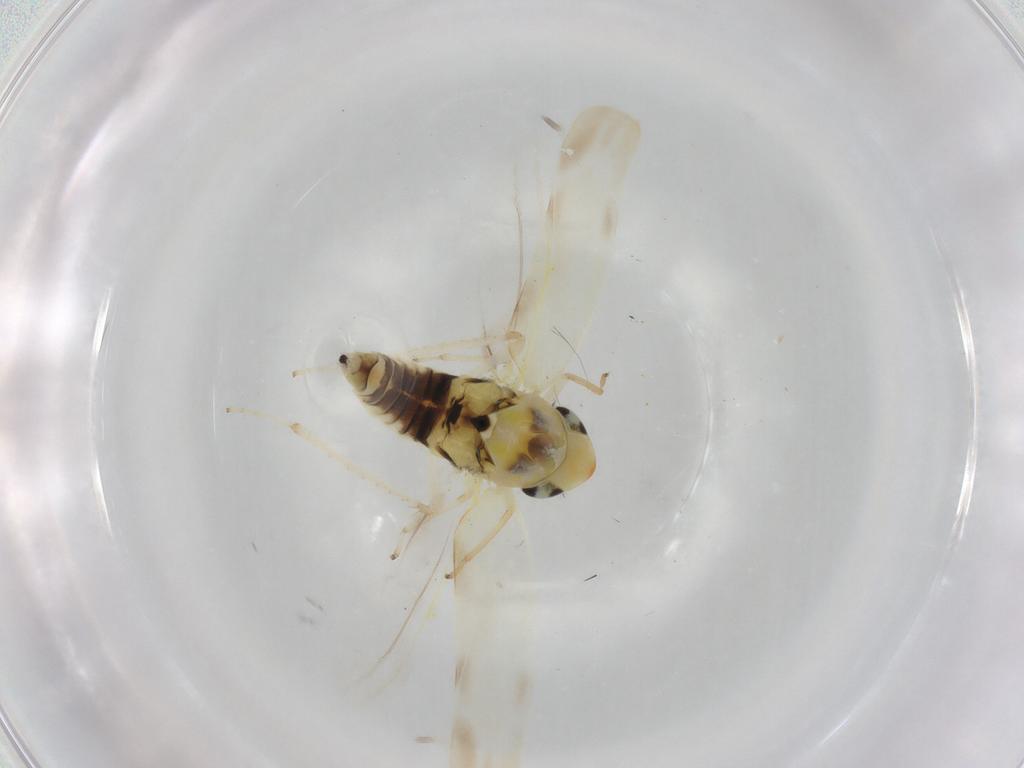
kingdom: Animalia
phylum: Arthropoda
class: Insecta
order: Hemiptera
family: Cicadellidae
